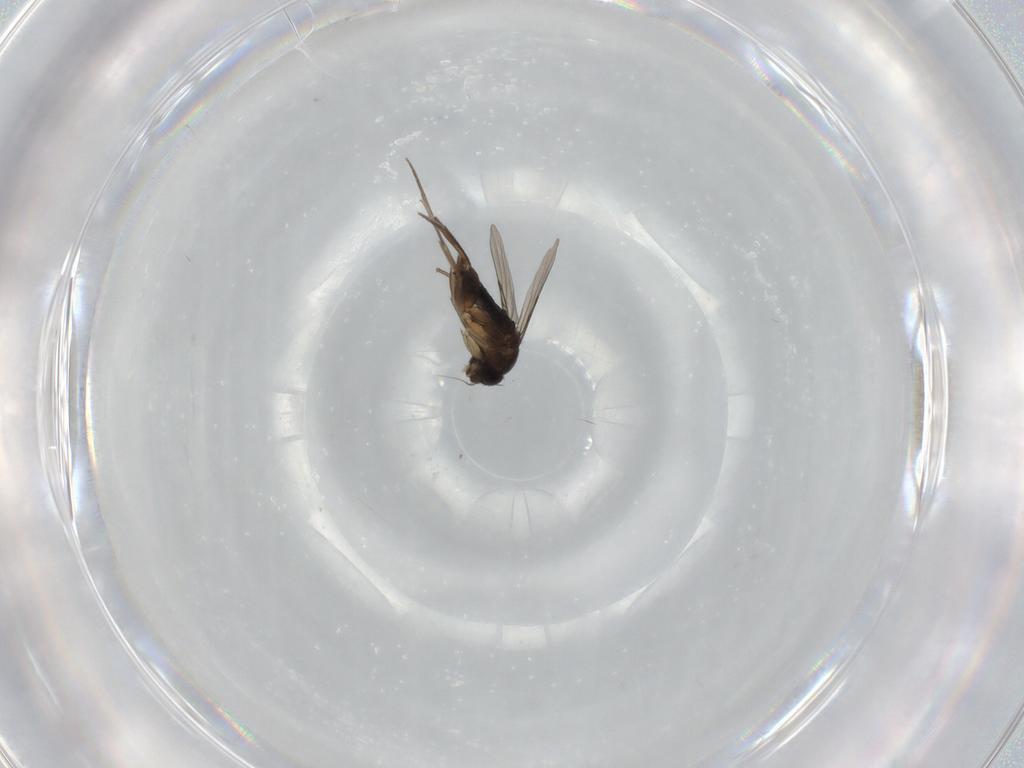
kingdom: Animalia
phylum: Arthropoda
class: Insecta
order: Diptera
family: Phoridae
